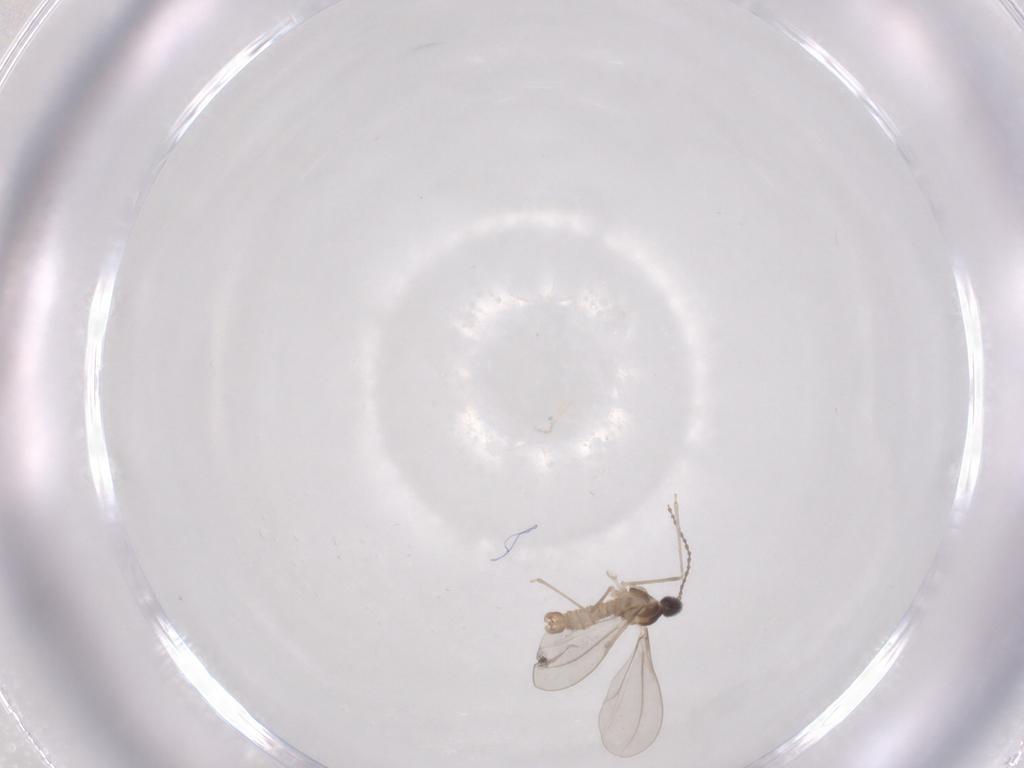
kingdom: Animalia
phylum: Arthropoda
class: Insecta
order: Diptera
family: Cecidomyiidae
